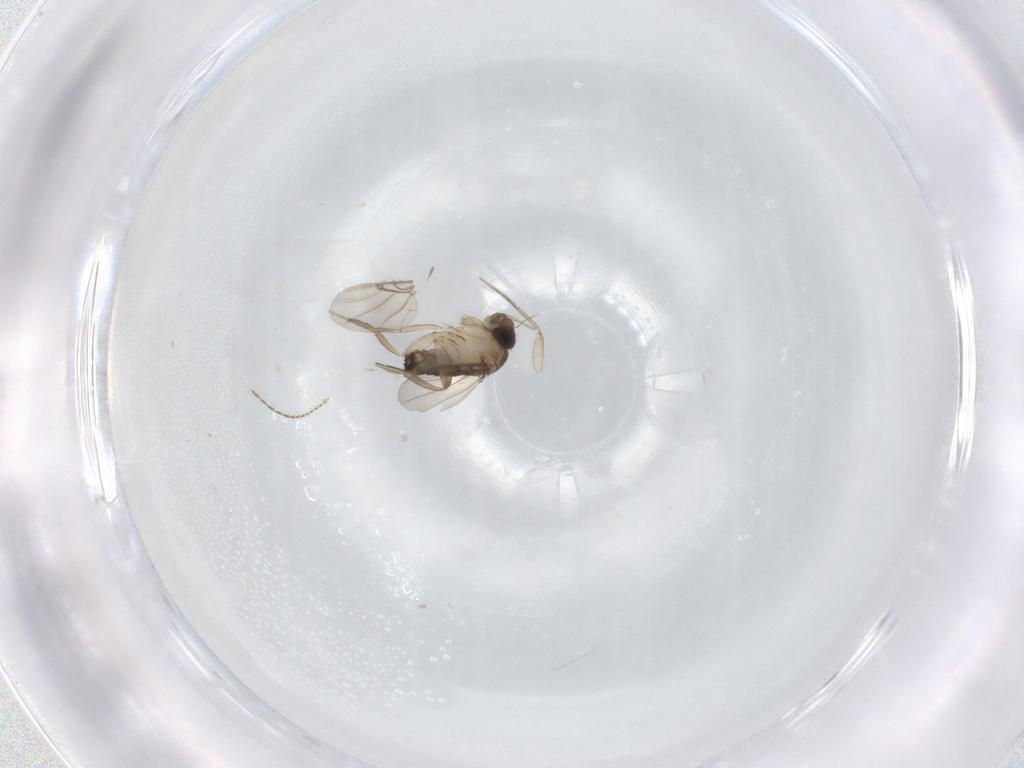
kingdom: Animalia
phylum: Arthropoda
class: Insecta
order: Diptera
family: Phoridae
